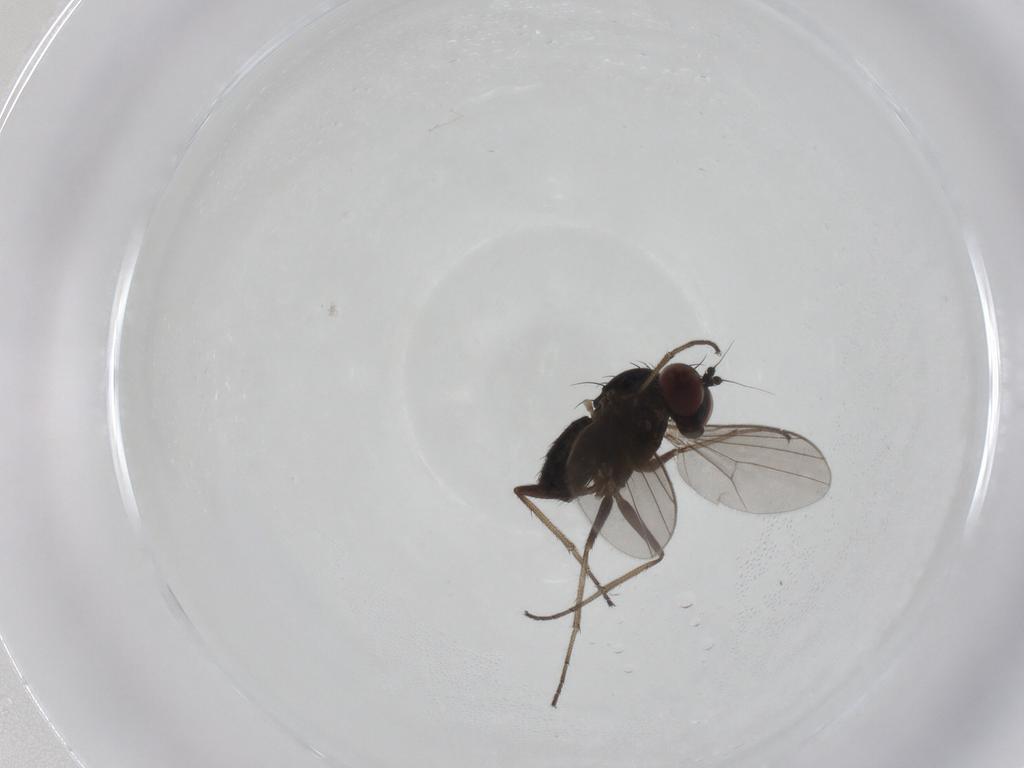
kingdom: Animalia
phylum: Arthropoda
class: Insecta
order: Diptera
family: Dolichopodidae
